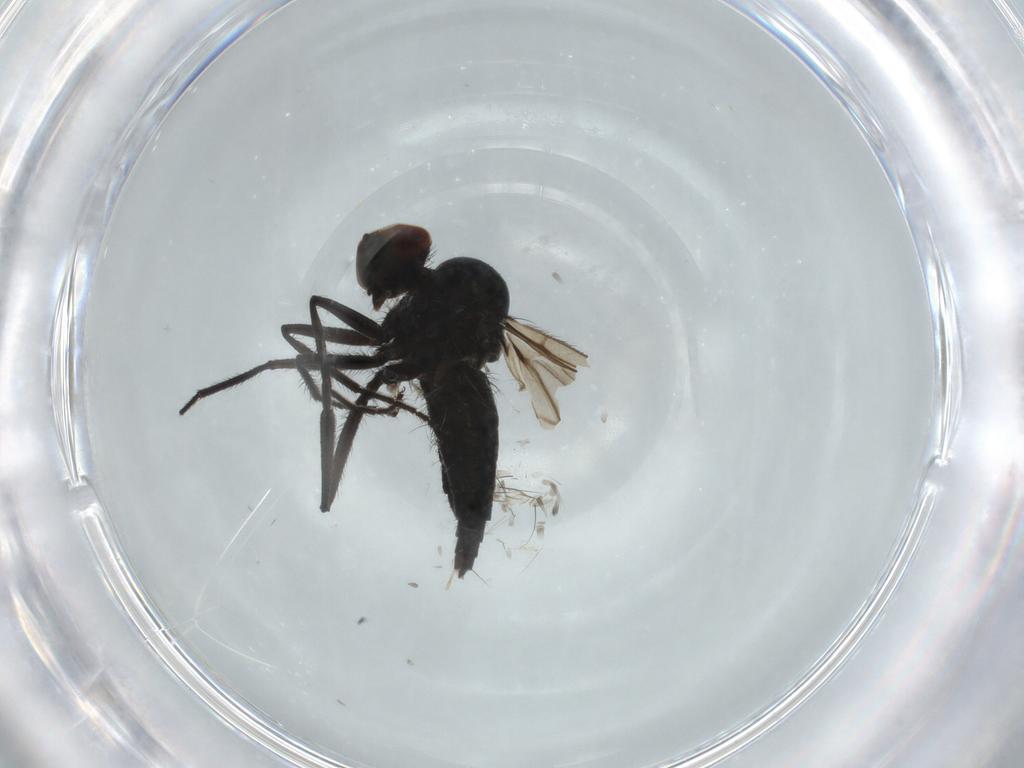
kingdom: Animalia
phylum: Arthropoda
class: Insecta
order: Diptera
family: Hybotidae
